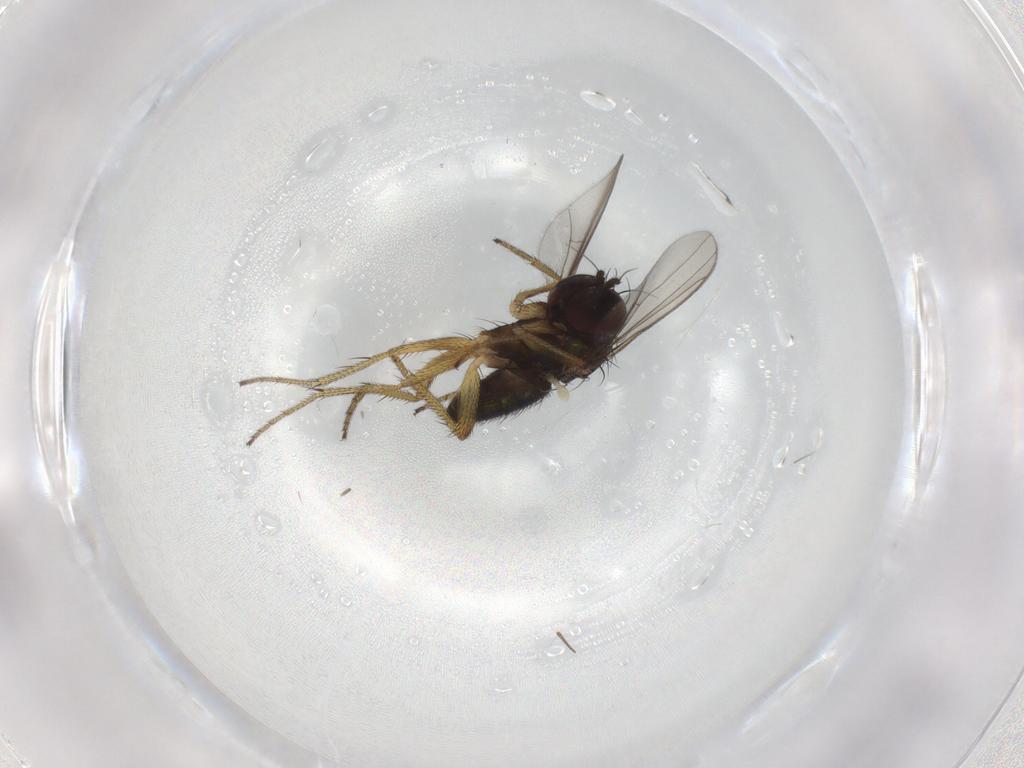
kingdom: Animalia
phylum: Arthropoda
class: Insecta
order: Diptera
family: Dolichopodidae
